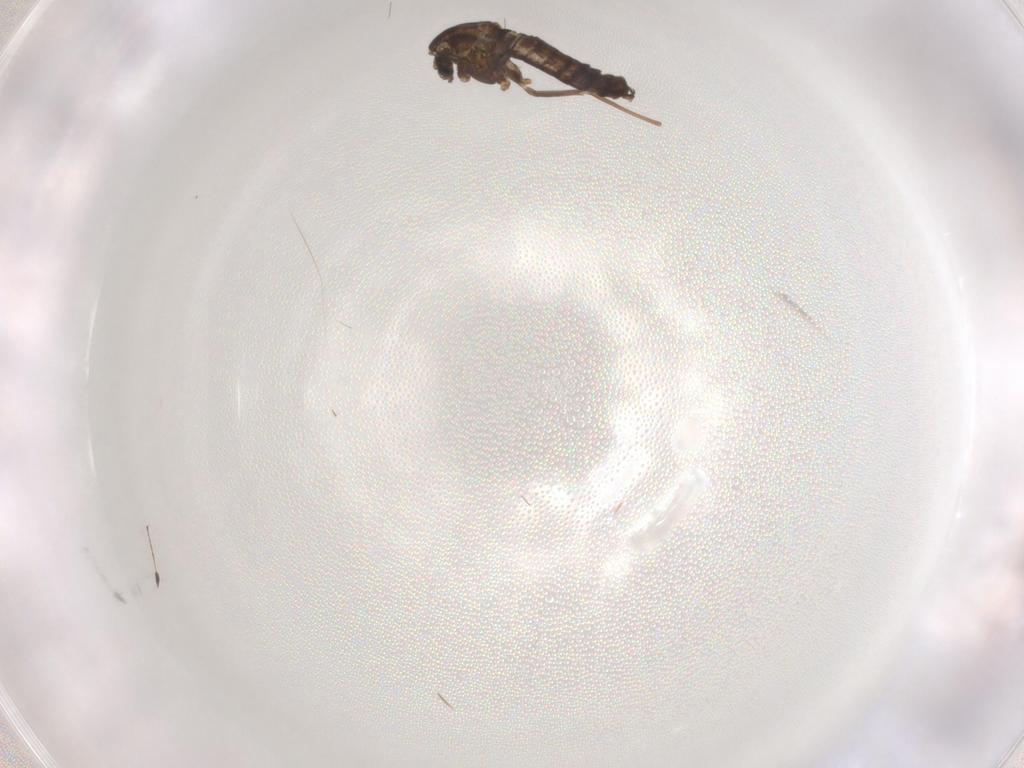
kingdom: Animalia
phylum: Arthropoda
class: Insecta
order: Diptera
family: Chironomidae
